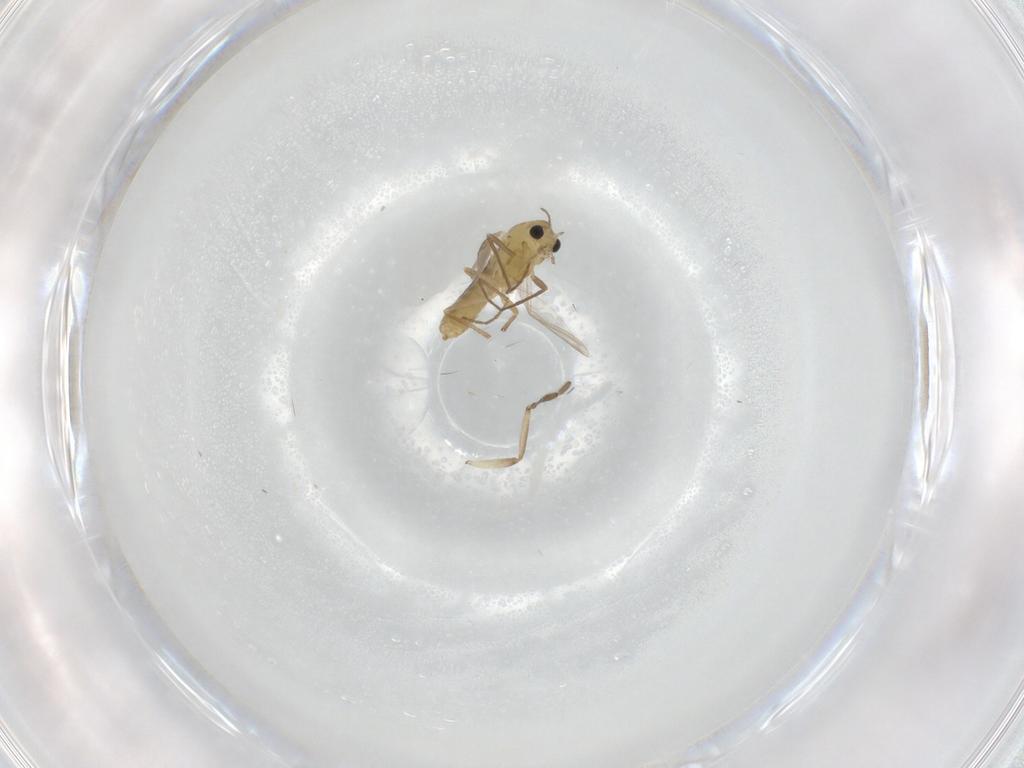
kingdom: Animalia
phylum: Arthropoda
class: Insecta
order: Diptera
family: Chironomidae
